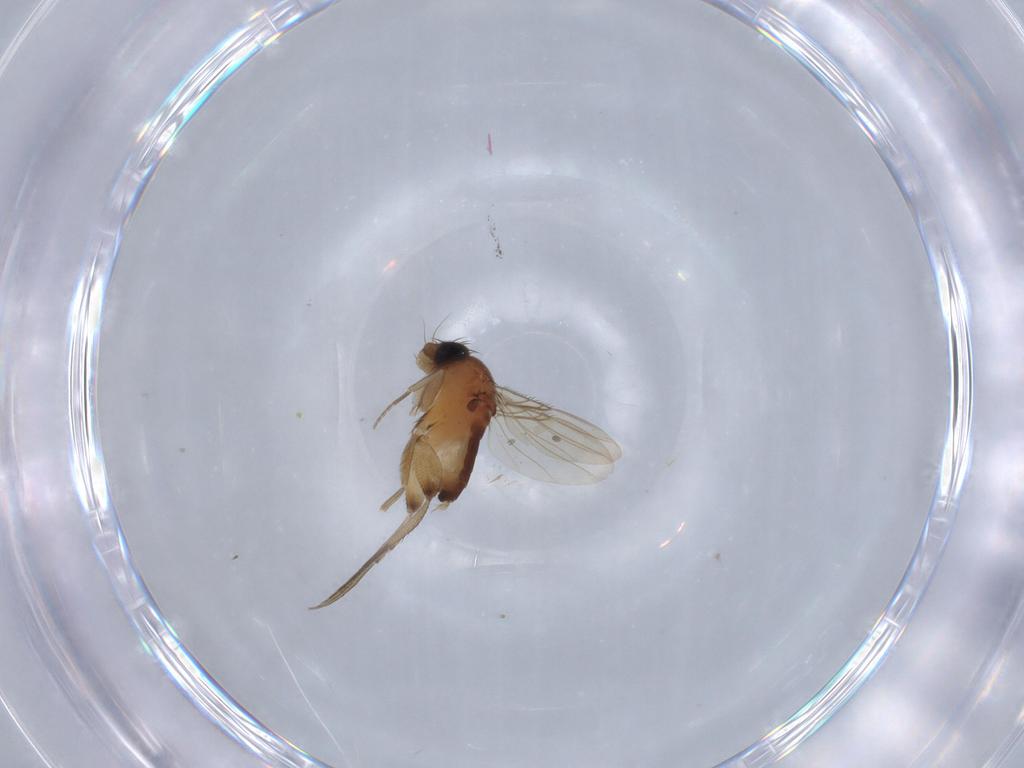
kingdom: Animalia
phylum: Arthropoda
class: Insecta
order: Diptera
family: Phoridae
